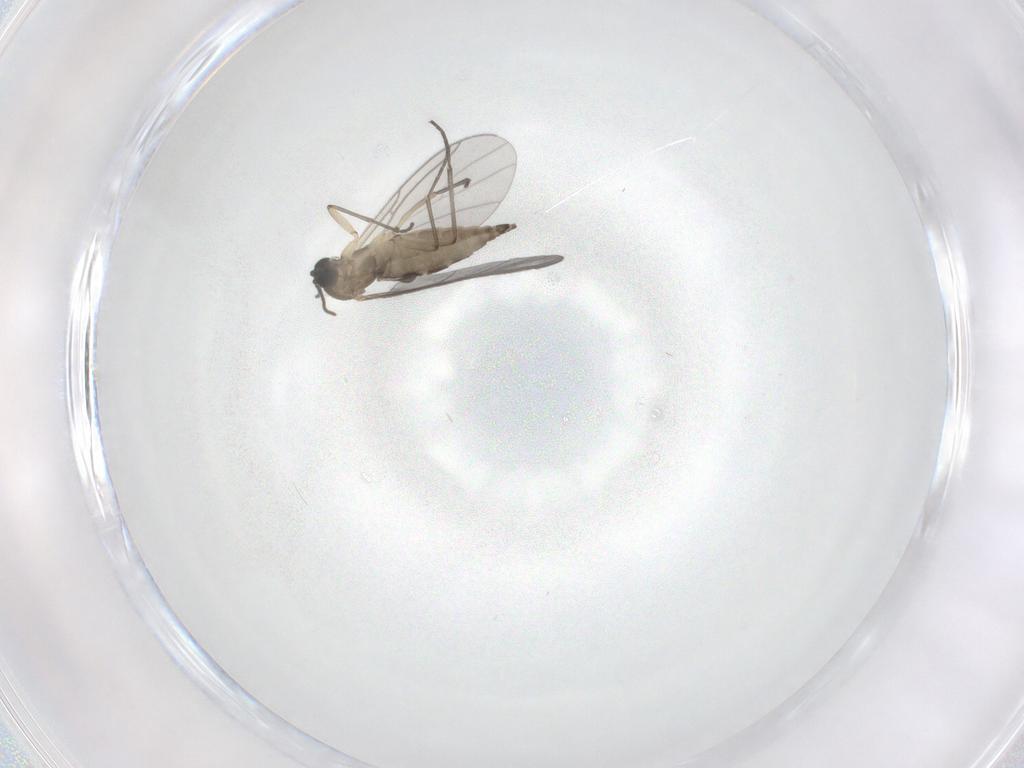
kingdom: Animalia
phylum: Arthropoda
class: Insecta
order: Diptera
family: Sciaridae
